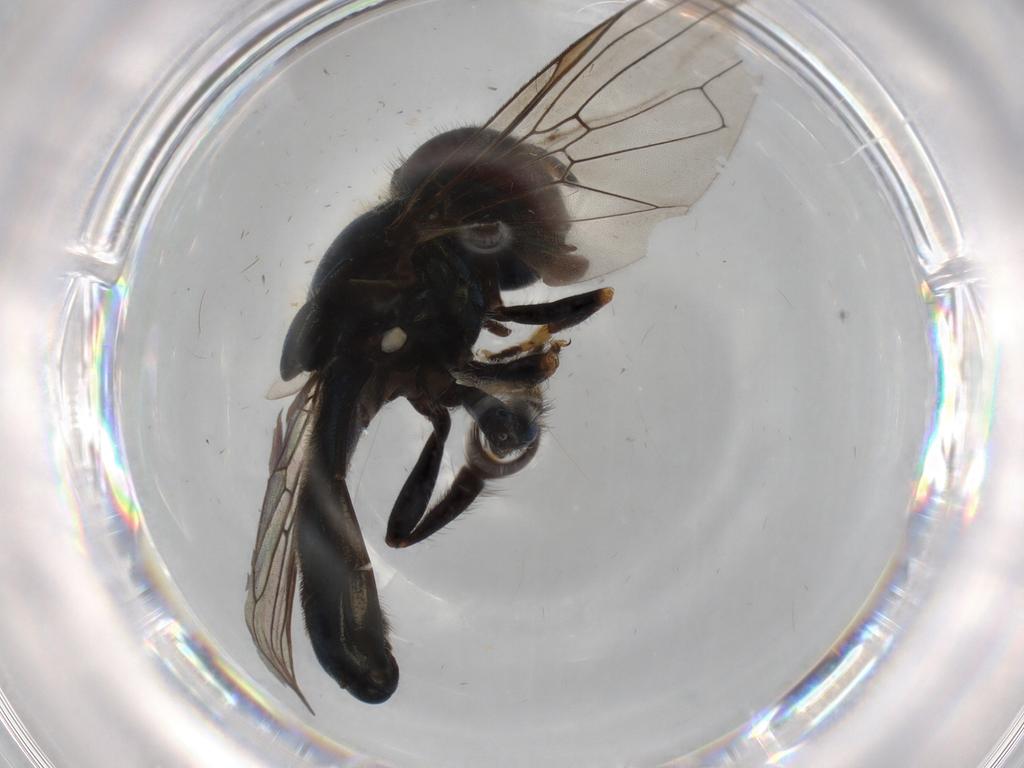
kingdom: Animalia
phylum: Arthropoda
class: Insecta
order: Diptera
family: Syrphidae
